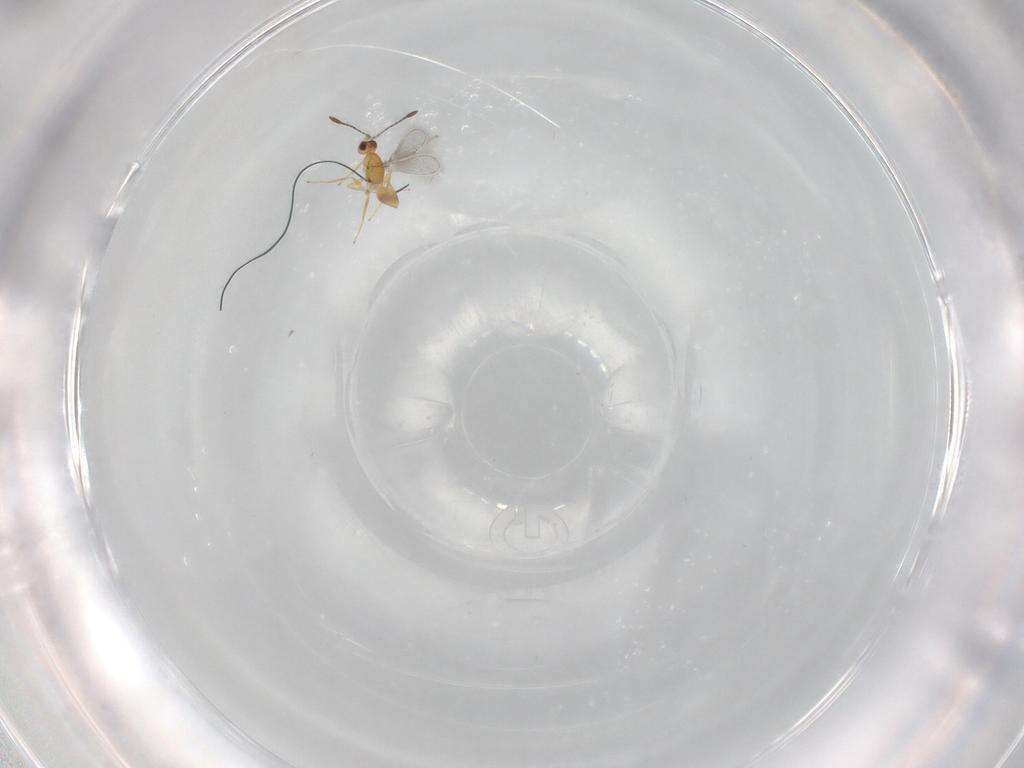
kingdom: Animalia
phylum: Arthropoda
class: Insecta
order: Hymenoptera
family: Mymaridae
